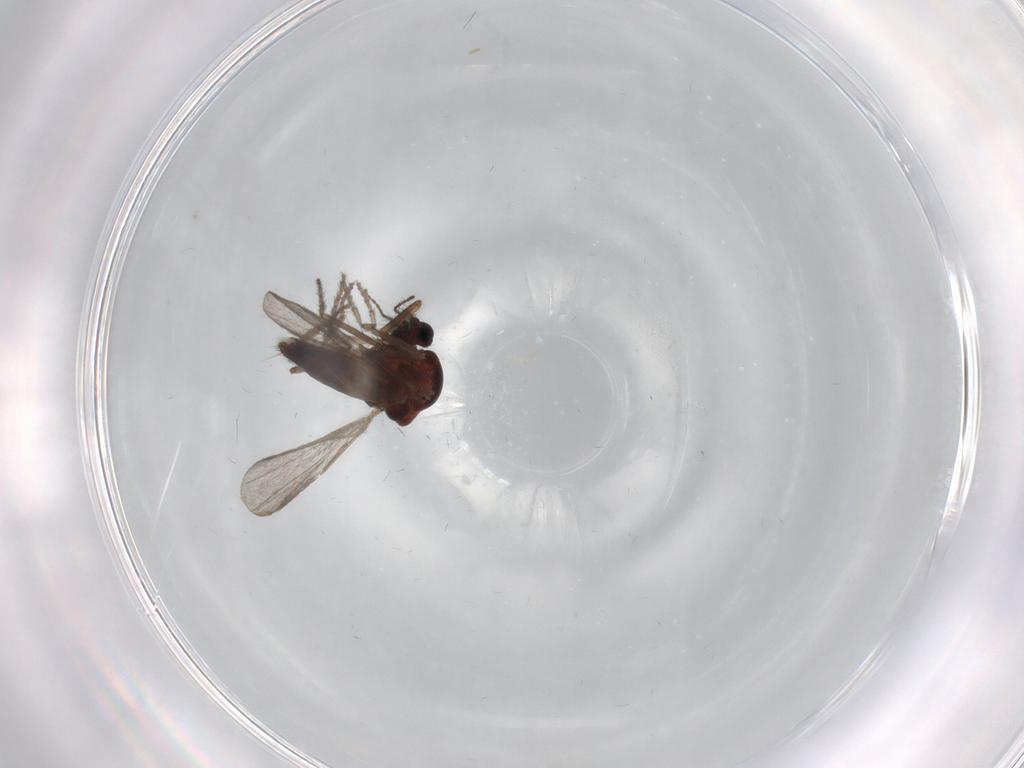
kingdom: Animalia
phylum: Arthropoda
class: Insecta
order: Diptera
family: Ceratopogonidae
